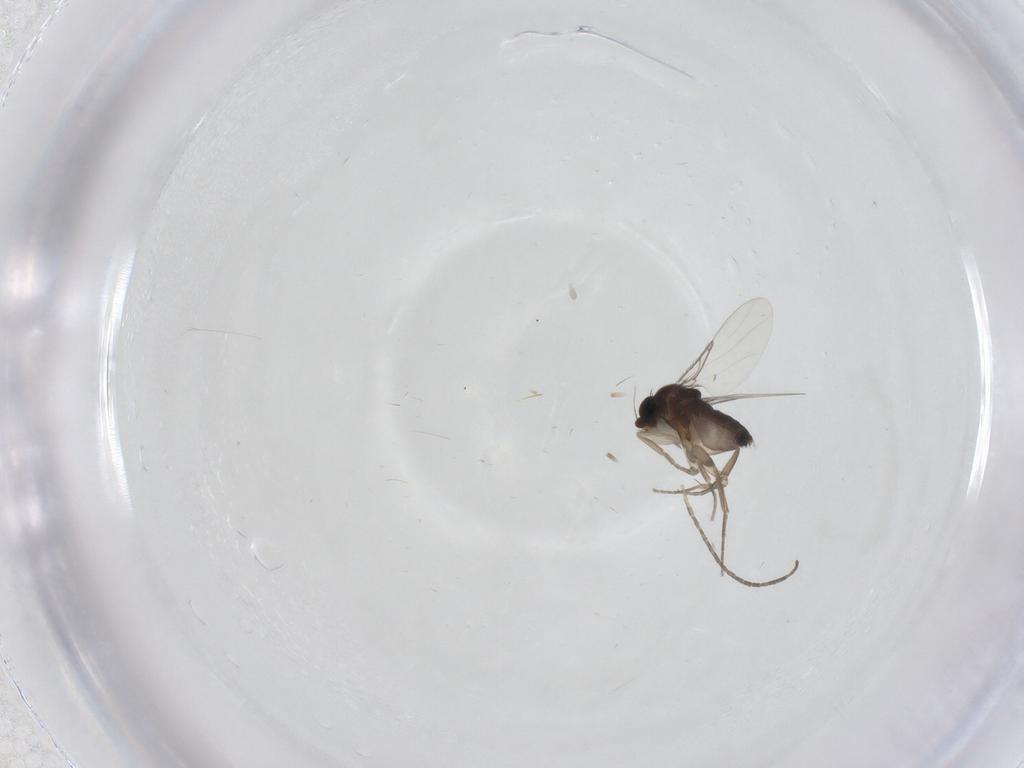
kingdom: Animalia
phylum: Arthropoda
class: Insecta
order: Diptera
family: Phoridae
